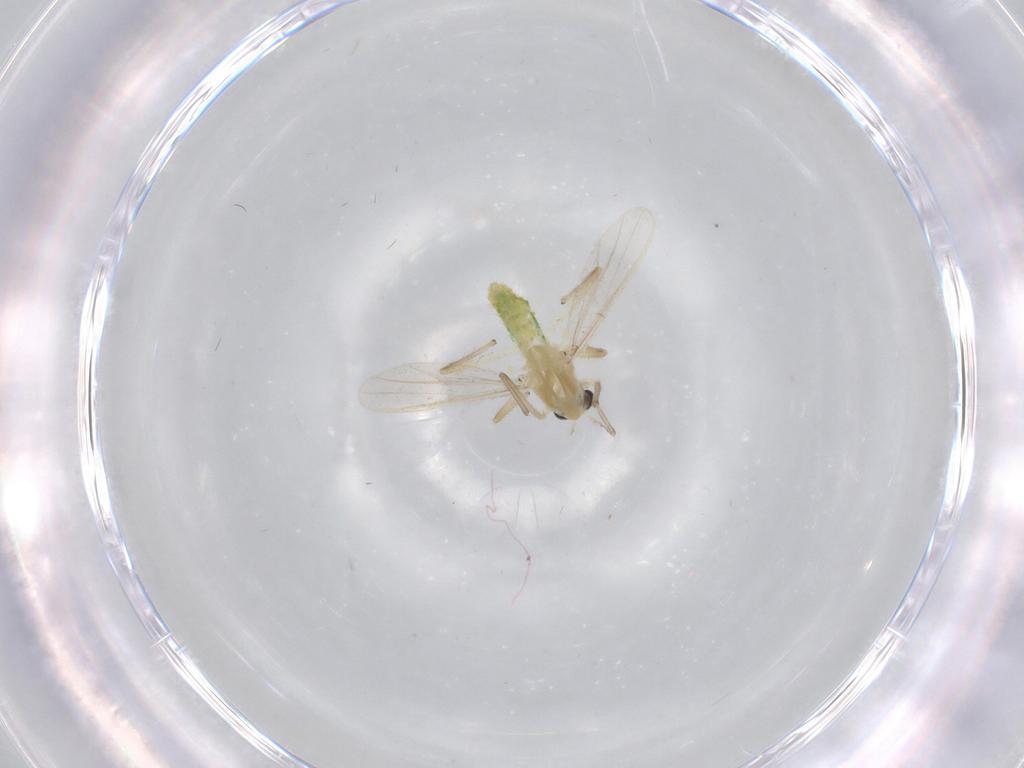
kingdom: Animalia
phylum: Arthropoda
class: Insecta
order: Diptera
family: Chironomidae
